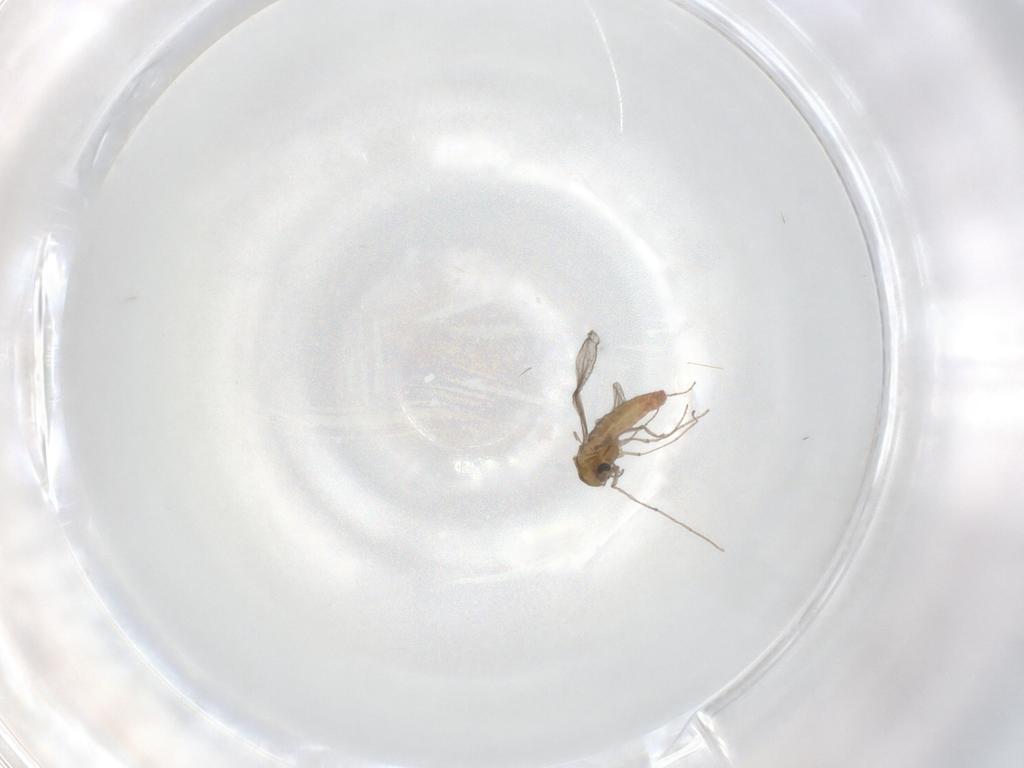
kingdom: Animalia
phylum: Arthropoda
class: Insecta
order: Diptera
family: Chironomidae
